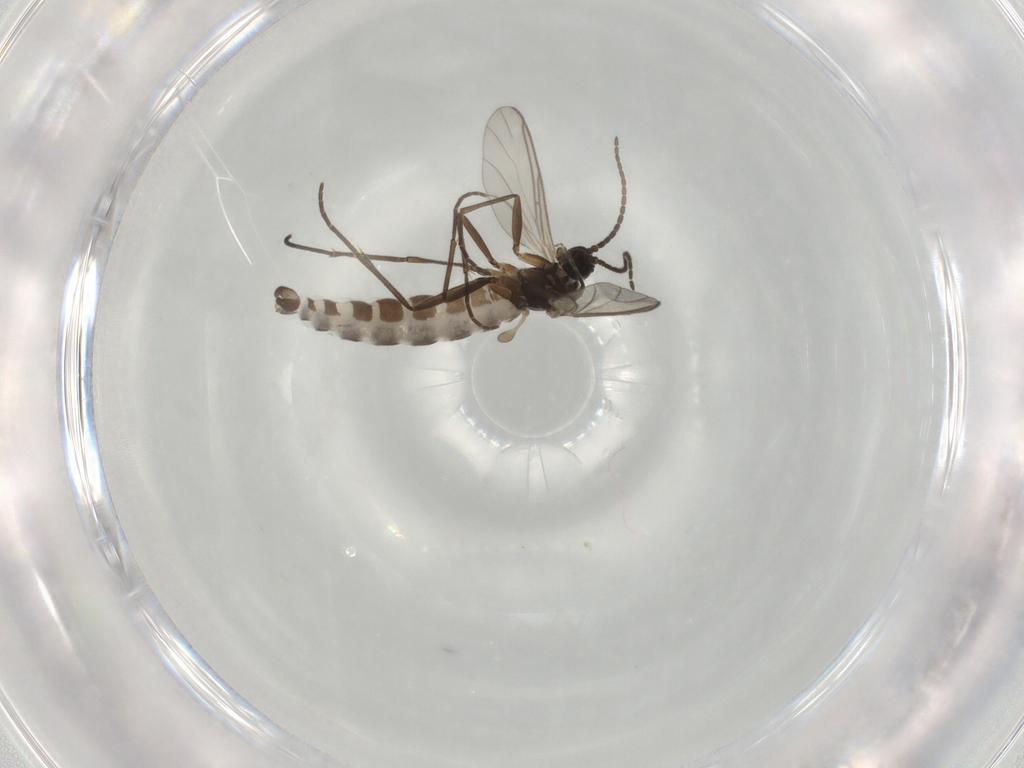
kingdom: Animalia
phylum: Arthropoda
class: Insecta
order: Diptera
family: Sciaridae
